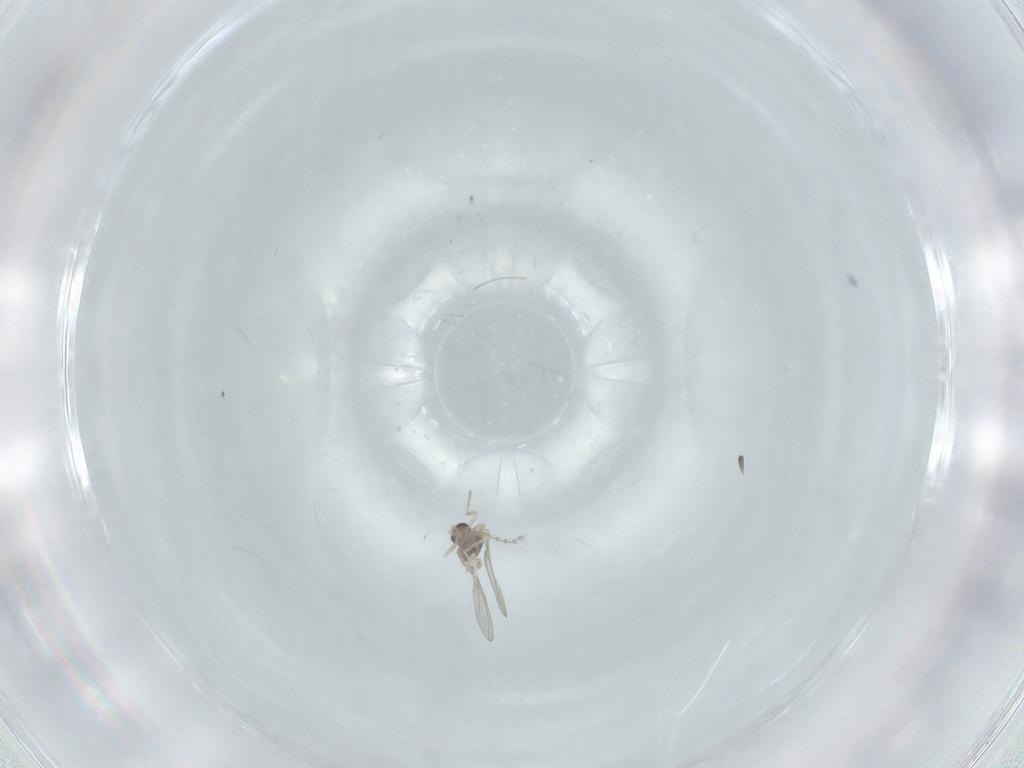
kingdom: Animalia
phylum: Arthropoda
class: Insecta
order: Diptera
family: Cecidomyiidae
